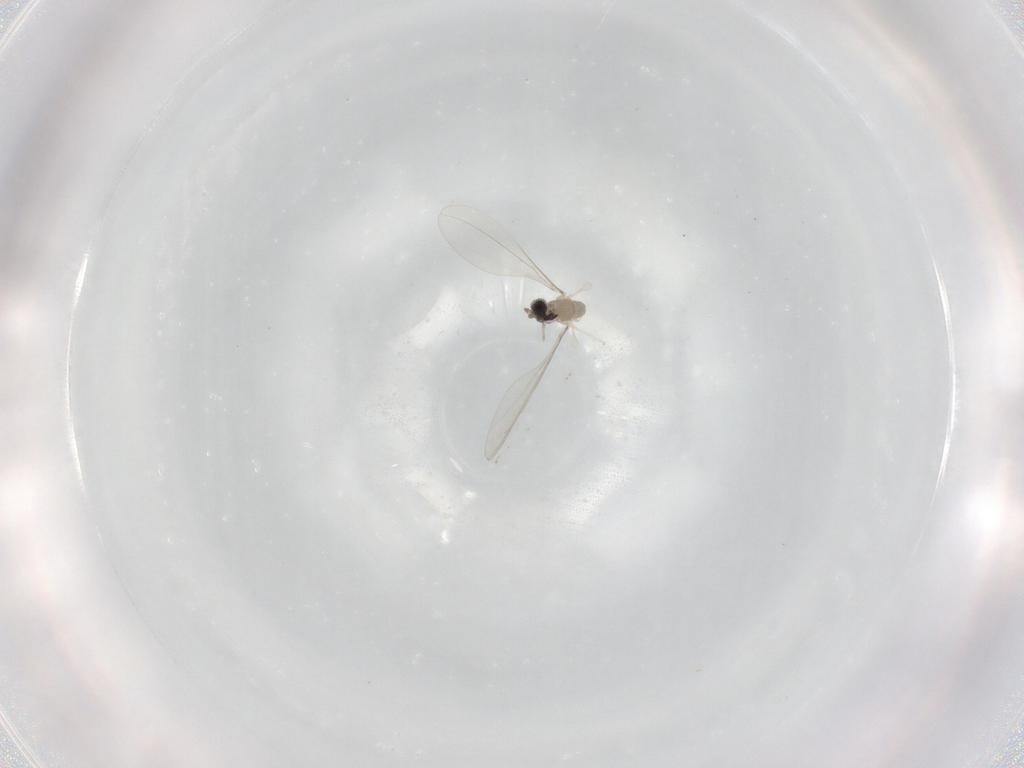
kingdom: Animalia
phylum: Arthropoda
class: Insecta
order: Diptera
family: Cecidomyiidae
